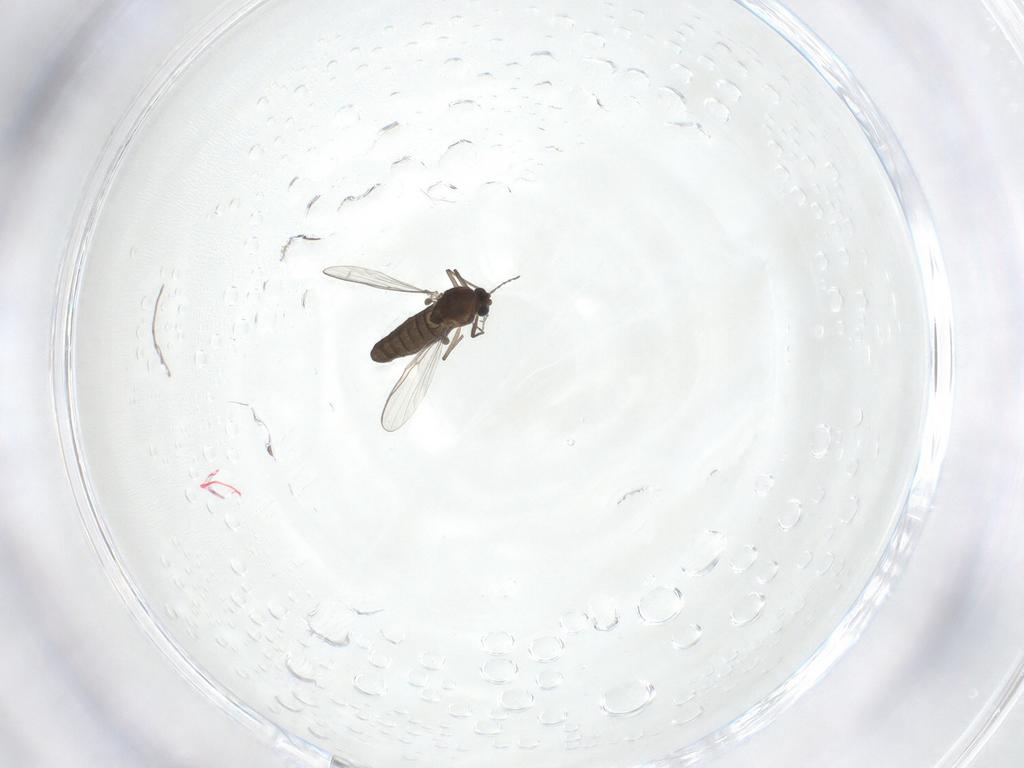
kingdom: Animalia
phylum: Arthropoda
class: Insecta
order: Diptera
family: Chironomidae
